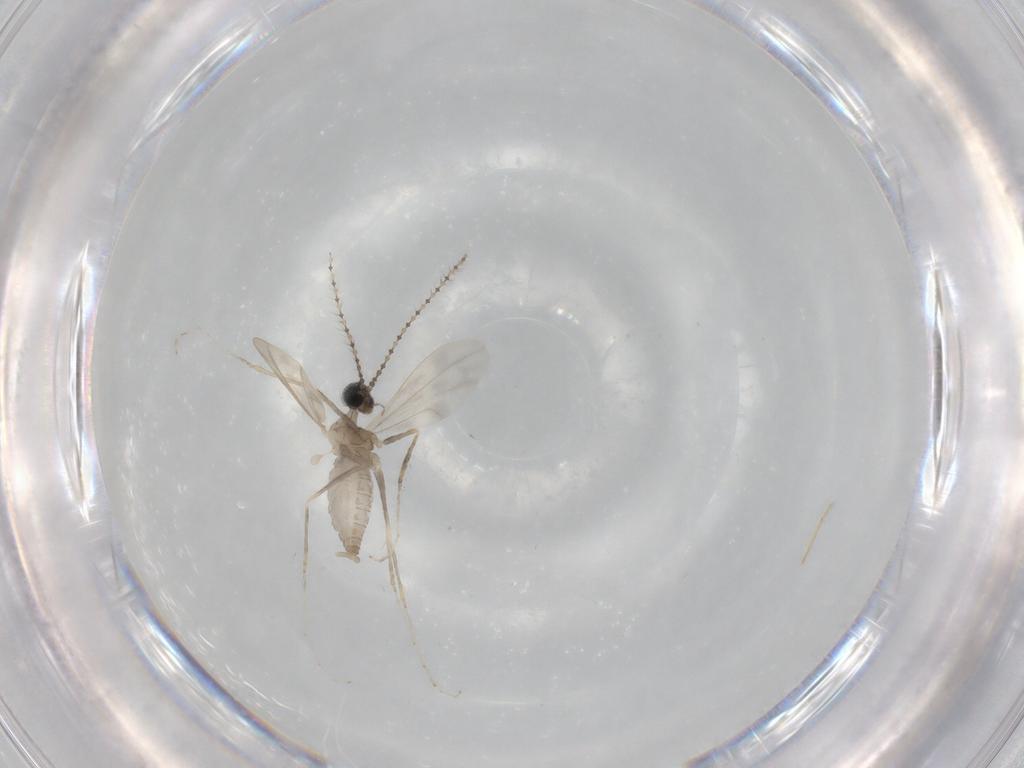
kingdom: Animalia
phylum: Arthropoda
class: Insecta
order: Diptera
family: Cecidomyiidae
